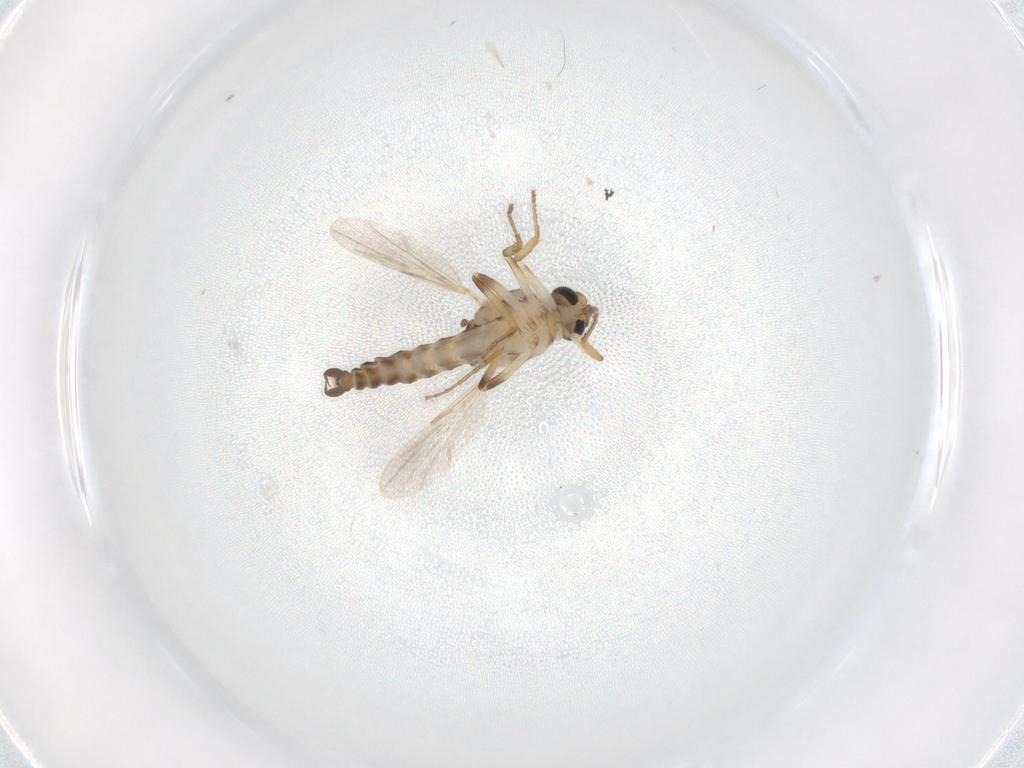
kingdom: Animalia
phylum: Arthropoda
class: Insecta
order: Diptera
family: Ceratopogonidae
